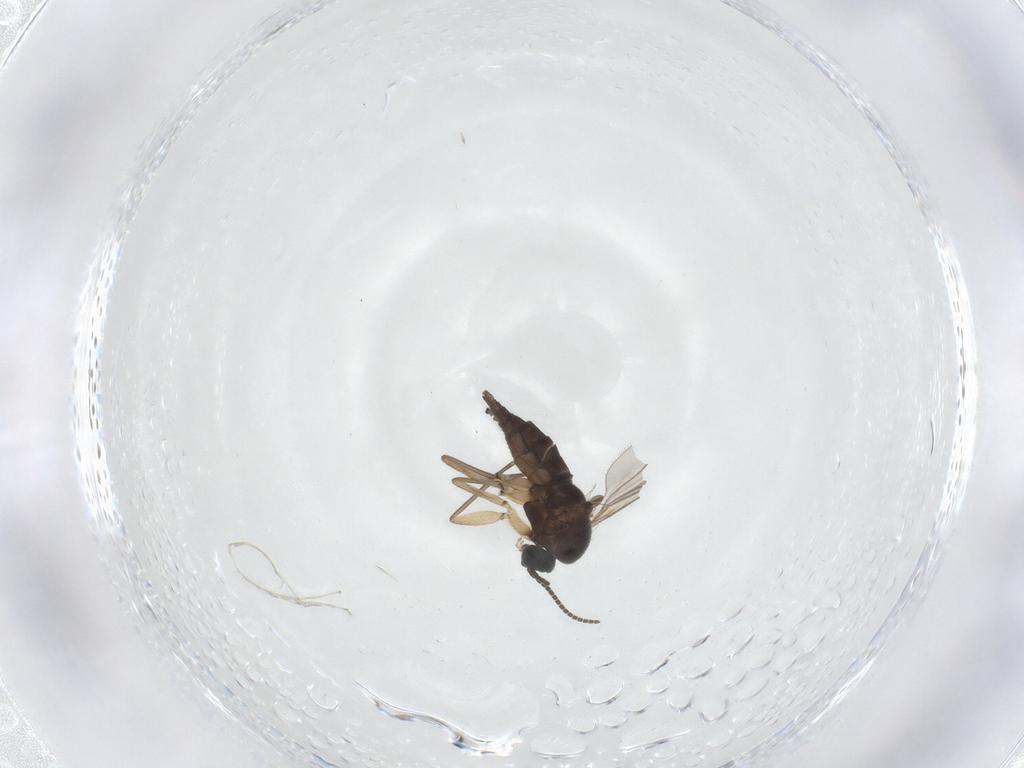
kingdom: Animalia
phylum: Arthropoda
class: Insecta
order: Diptera
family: Sciaridae
